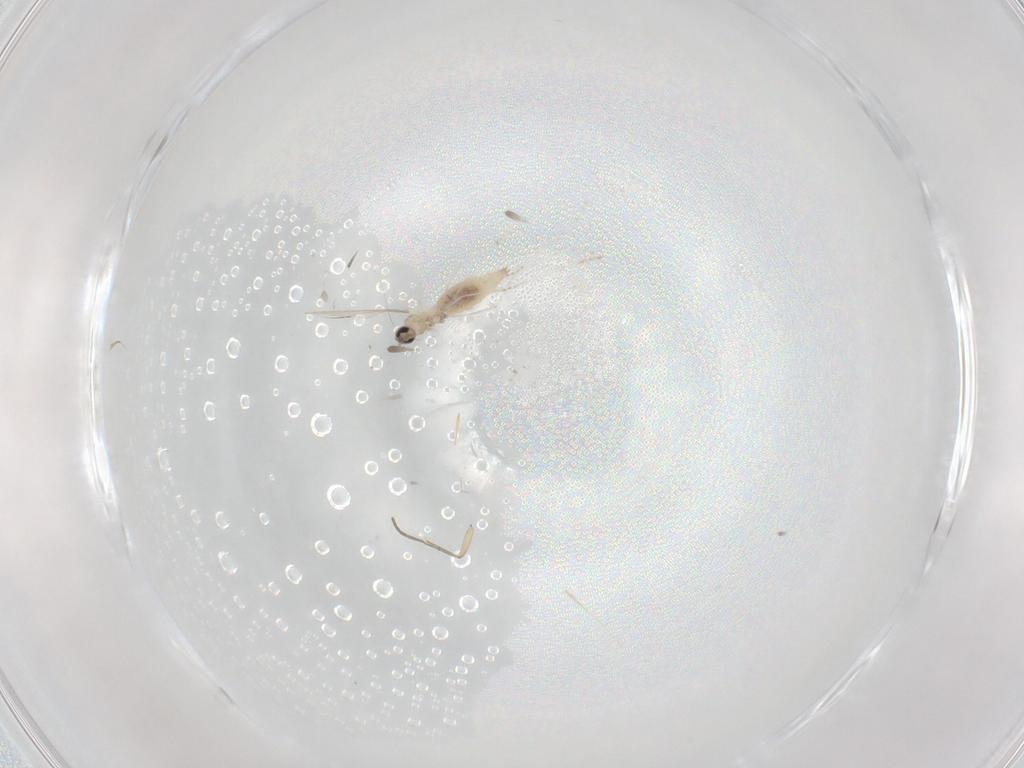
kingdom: Animalia
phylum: Arthropoda
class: Insecta
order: Diptera
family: Cecidomyiidae
